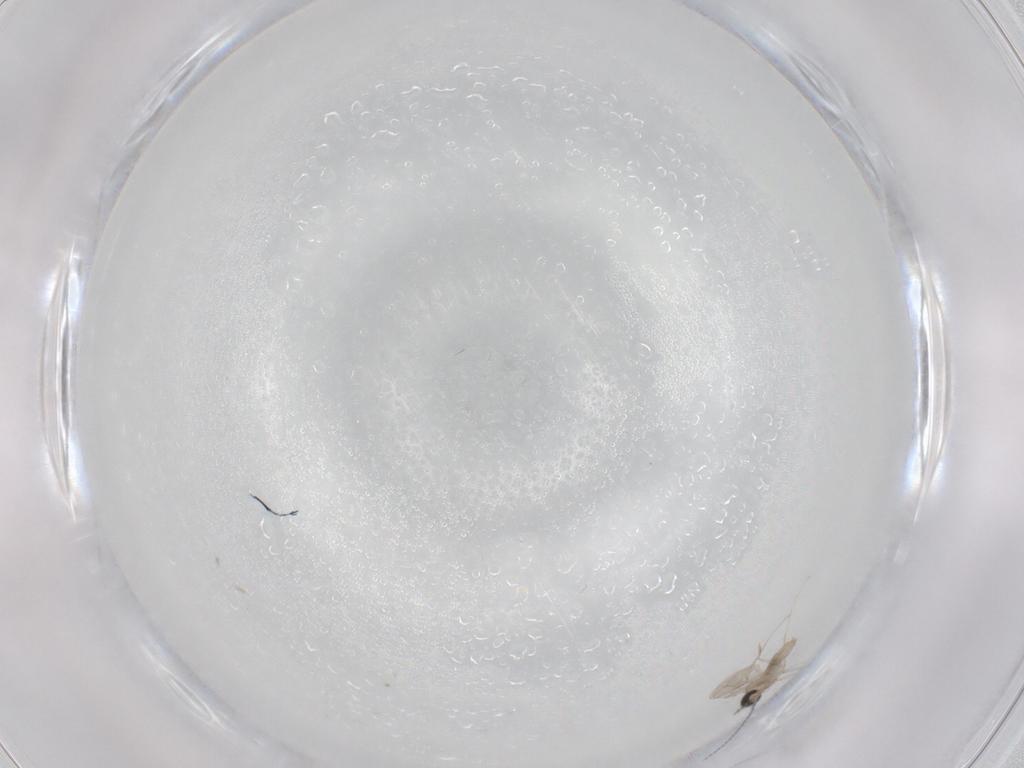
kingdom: Animalia
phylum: Arthropoda
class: Insecta
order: Diptera
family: Cecidomyiidae
